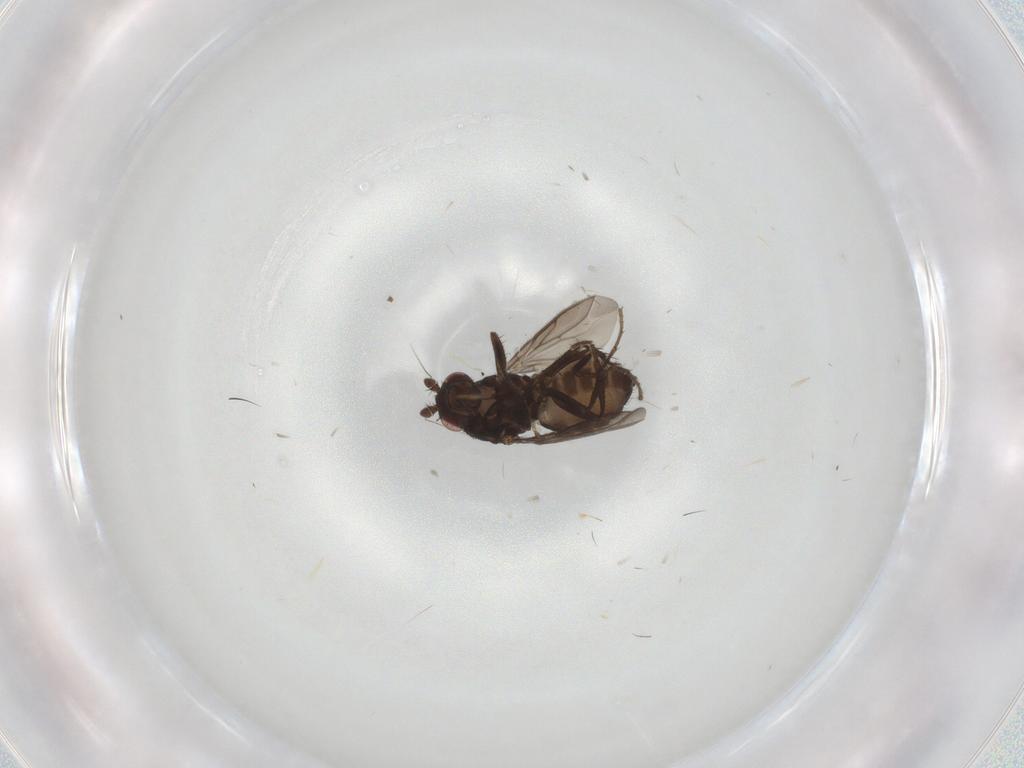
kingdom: Animalia
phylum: Arthropoda
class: Insecta
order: Diptera
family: Sphaeroceridae
